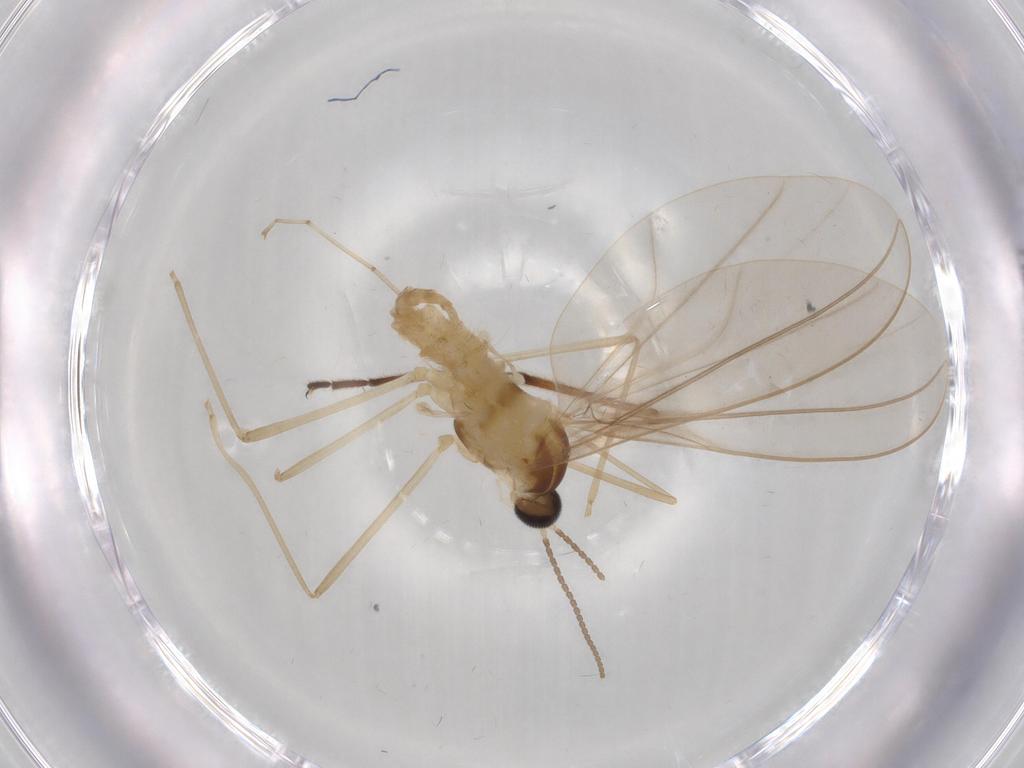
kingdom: Animalia
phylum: Arthropoda
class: Insecta
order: Diptera
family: Chironomidae
